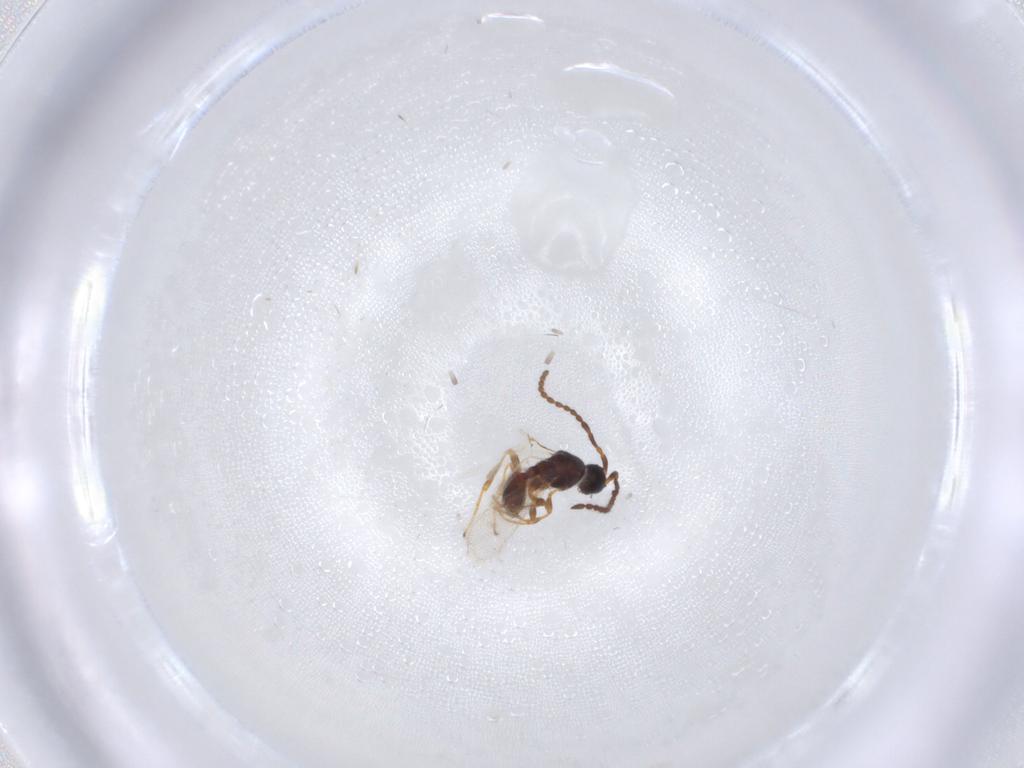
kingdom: Animalia
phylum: Arthropoda
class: Insecta
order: Hymenoptera
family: Diapriidae
